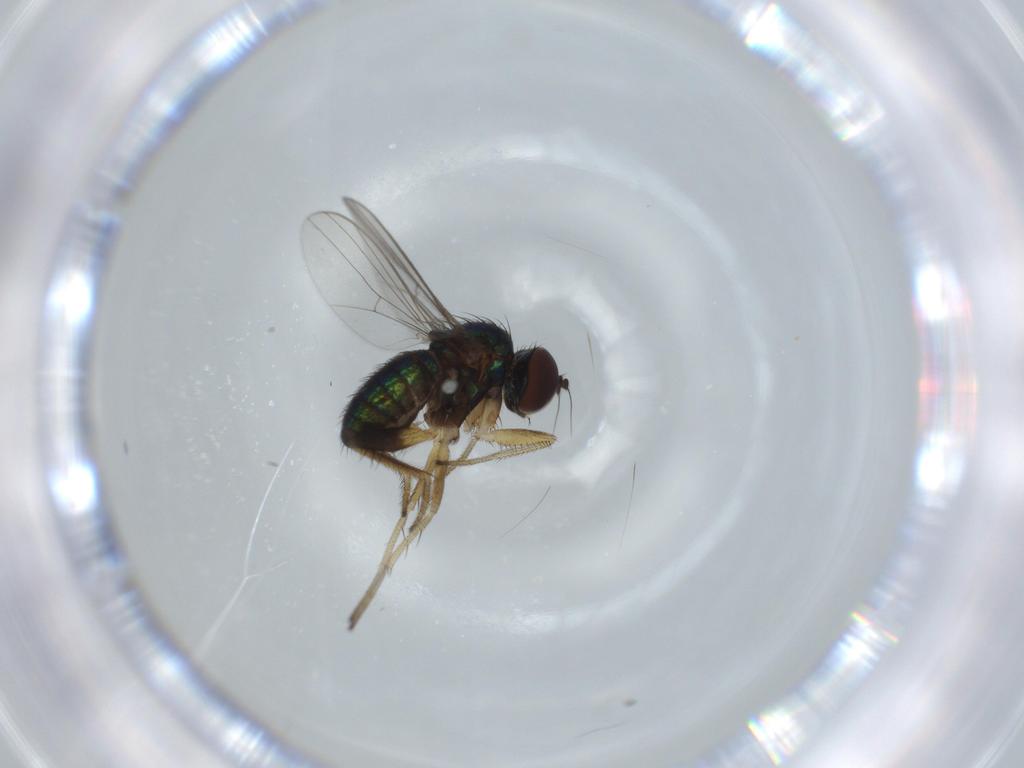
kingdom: Animalia
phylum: Arthropoda
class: Insecta
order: Diptera
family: Dolichopodidae
